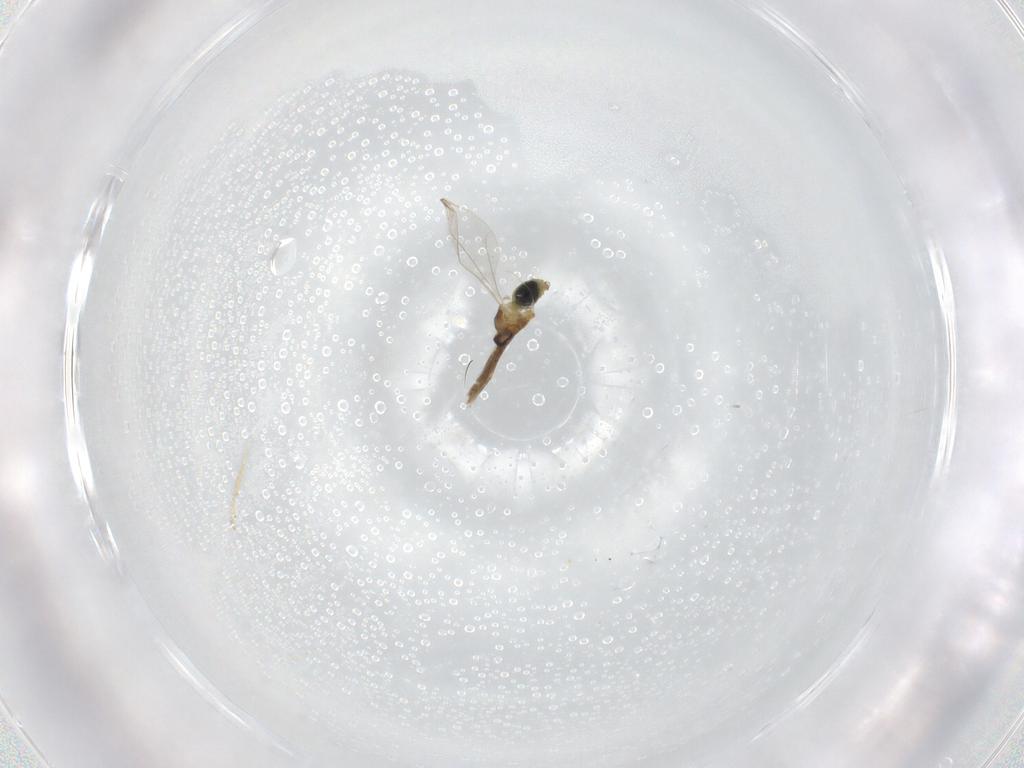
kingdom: Animalia
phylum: Arthropoda
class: Insecta
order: Diptera
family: Cecidomyiidae
